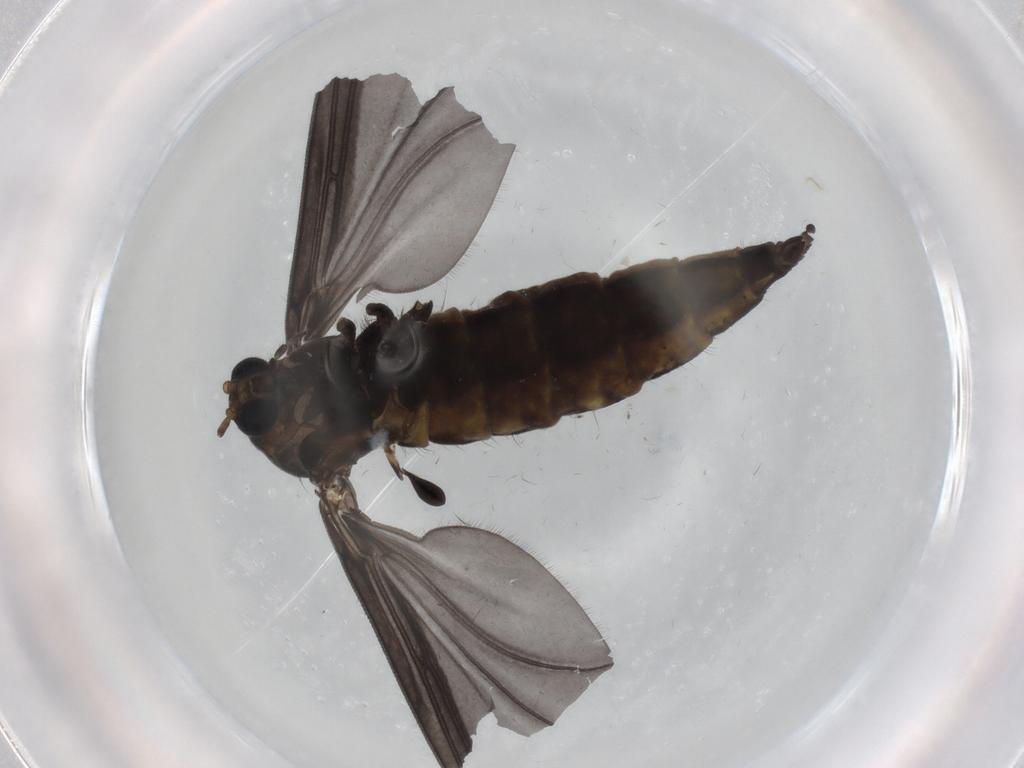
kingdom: Animalia
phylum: Arthropoda
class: Insecta
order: Diptera
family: Sciaridae
